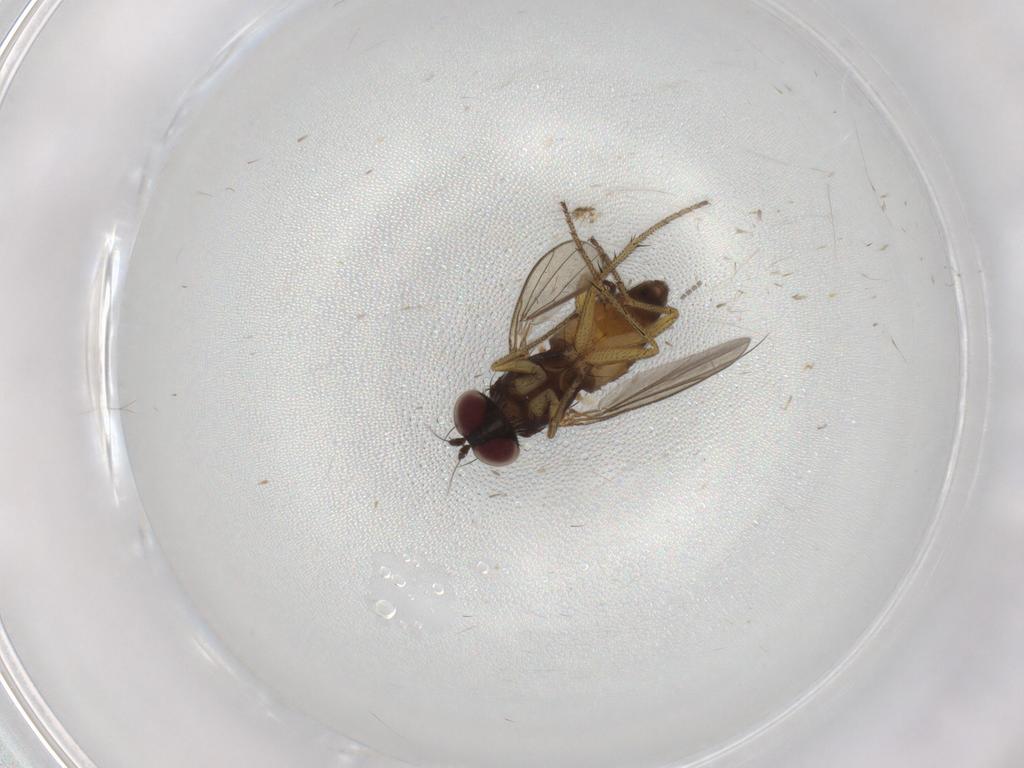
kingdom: Animalia
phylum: Arthropoda
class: Insecta
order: Diptera
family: Sciaridae
